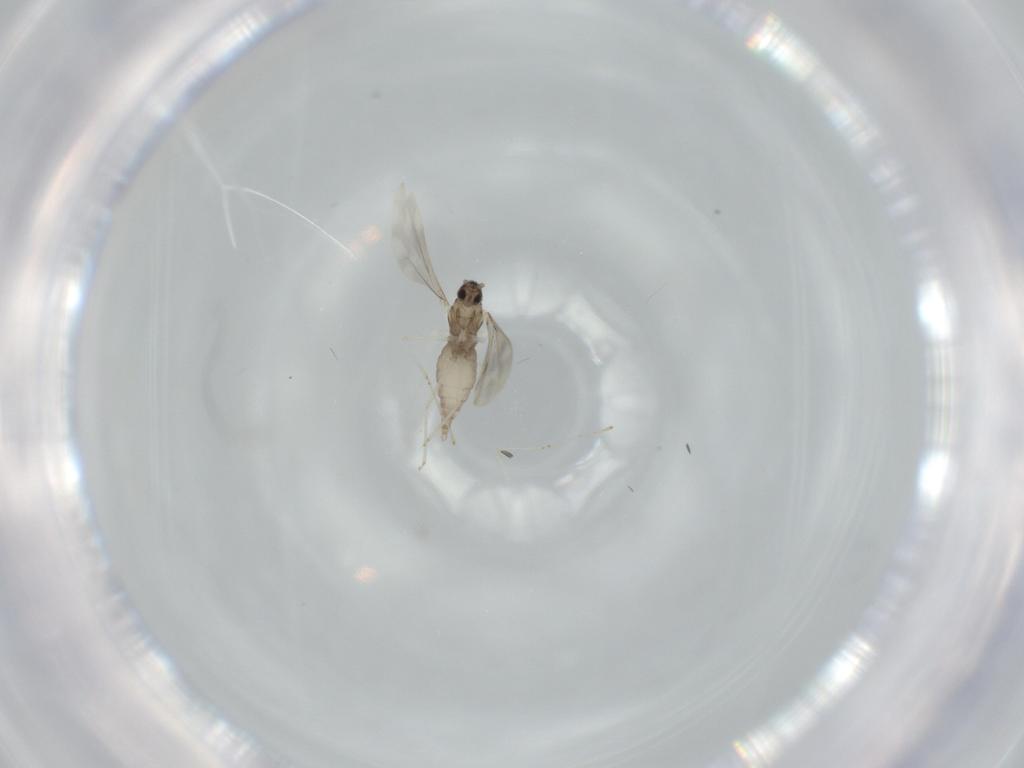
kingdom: Animalia
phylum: Arthropoda
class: Insecta
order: Diptera
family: Cecidomyiidae
